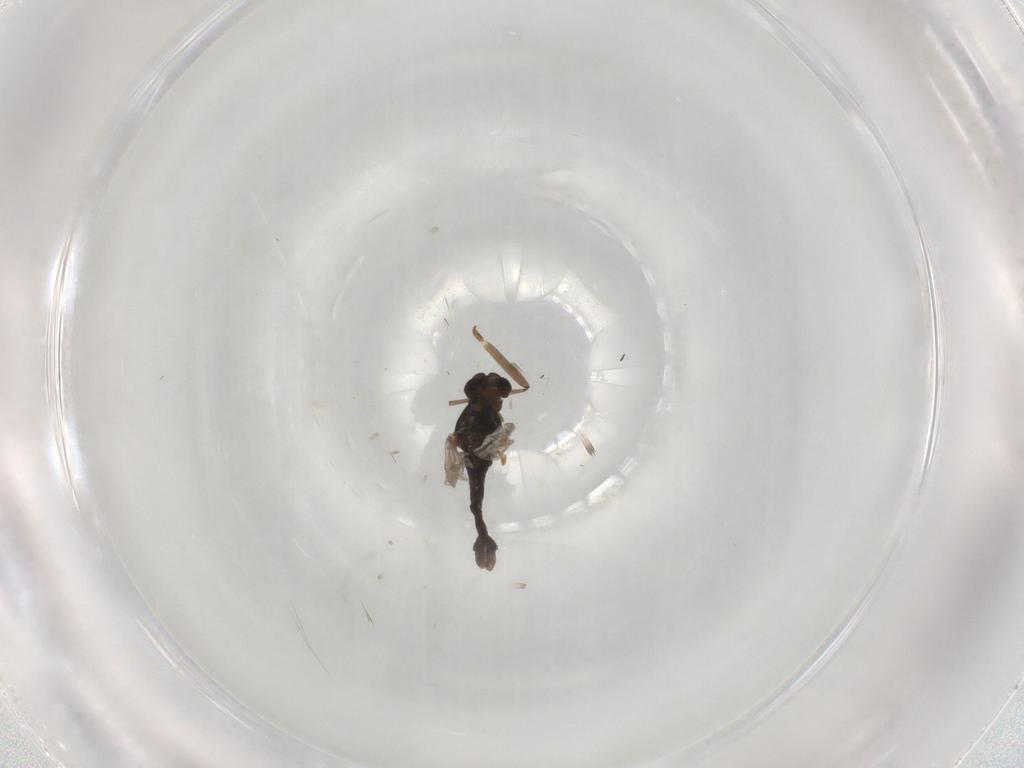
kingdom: Animalia
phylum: Arthropoda
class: Insecta
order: Diptera
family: Chironomidae
